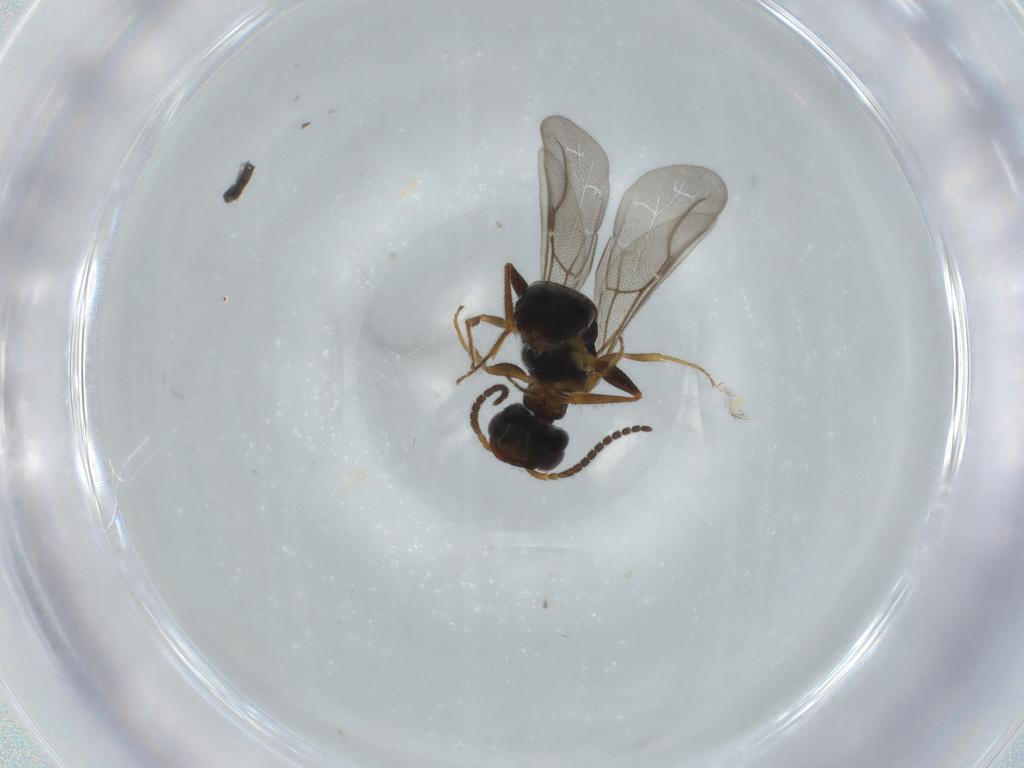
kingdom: Animalia
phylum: Arthropoda
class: Insecta
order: Hymenoptera
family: Bethylidae
